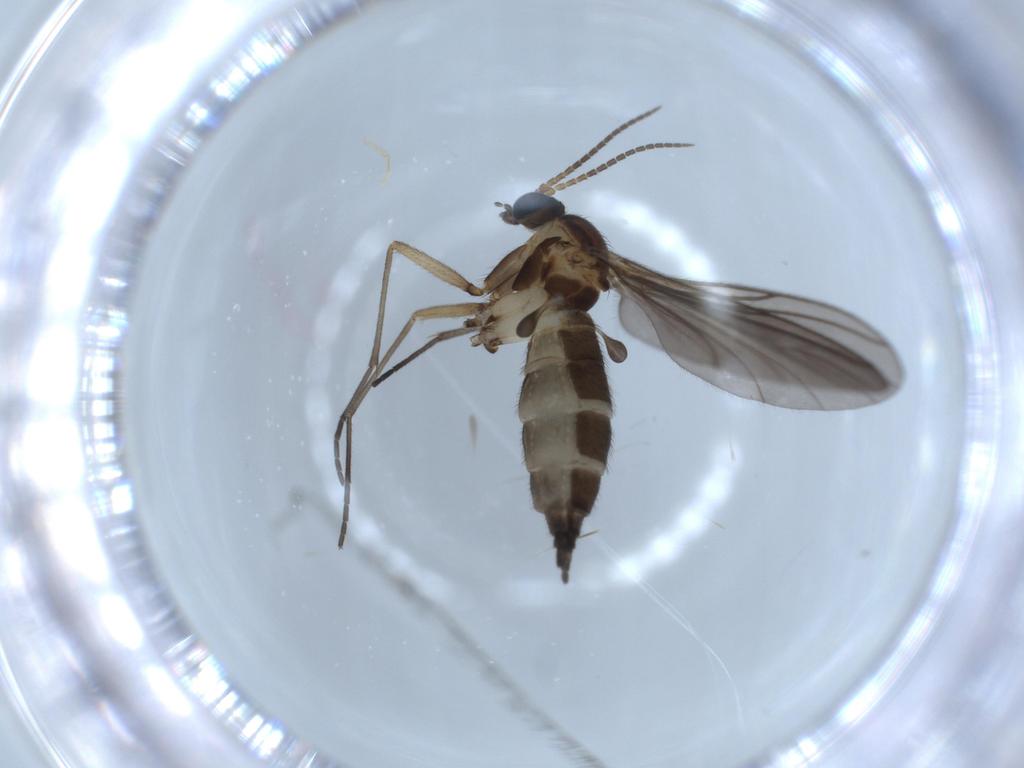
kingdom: Animalia
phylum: Arthropoda
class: Insecta
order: Diptera
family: Sciaridae
